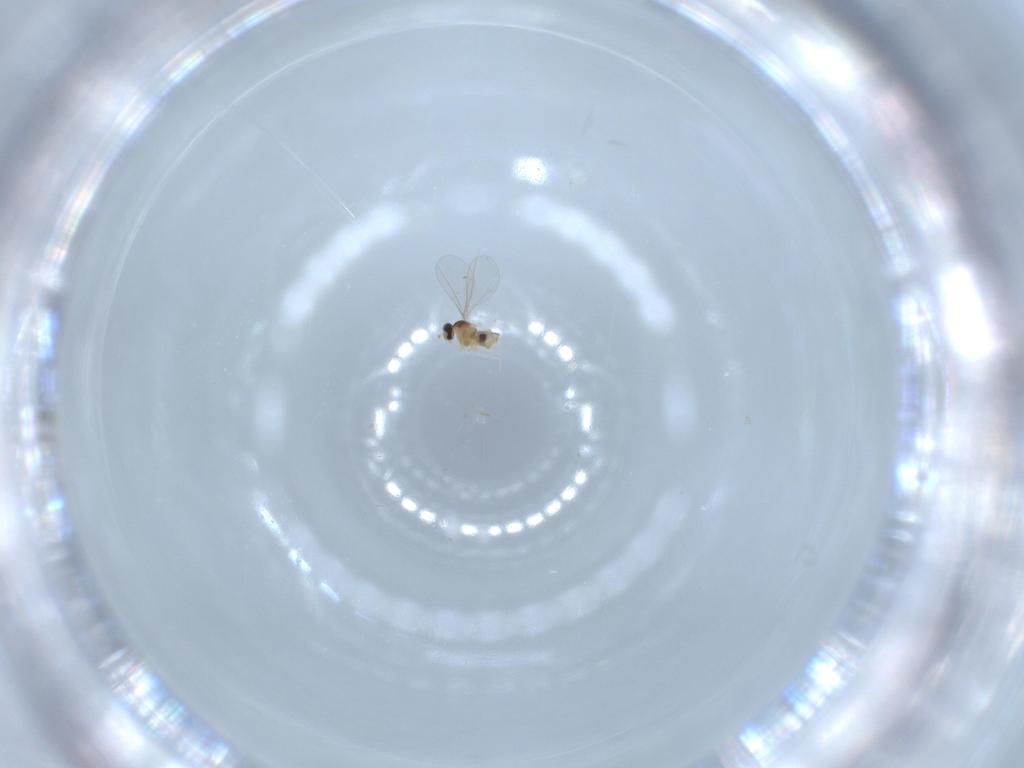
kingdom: Animalia
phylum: Arthropoda
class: Insecta
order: Diptera
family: Cecidomyiidae
